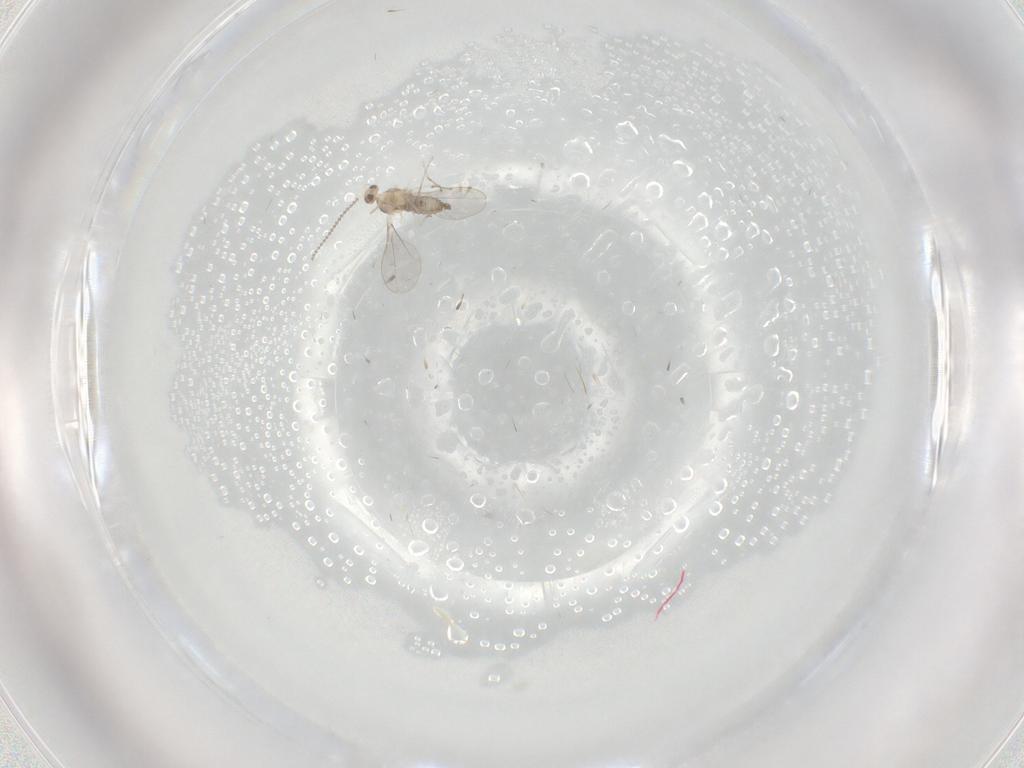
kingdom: Animalia
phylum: Arthropoda
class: Insecta
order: Diptera
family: Cecidomyiidae
